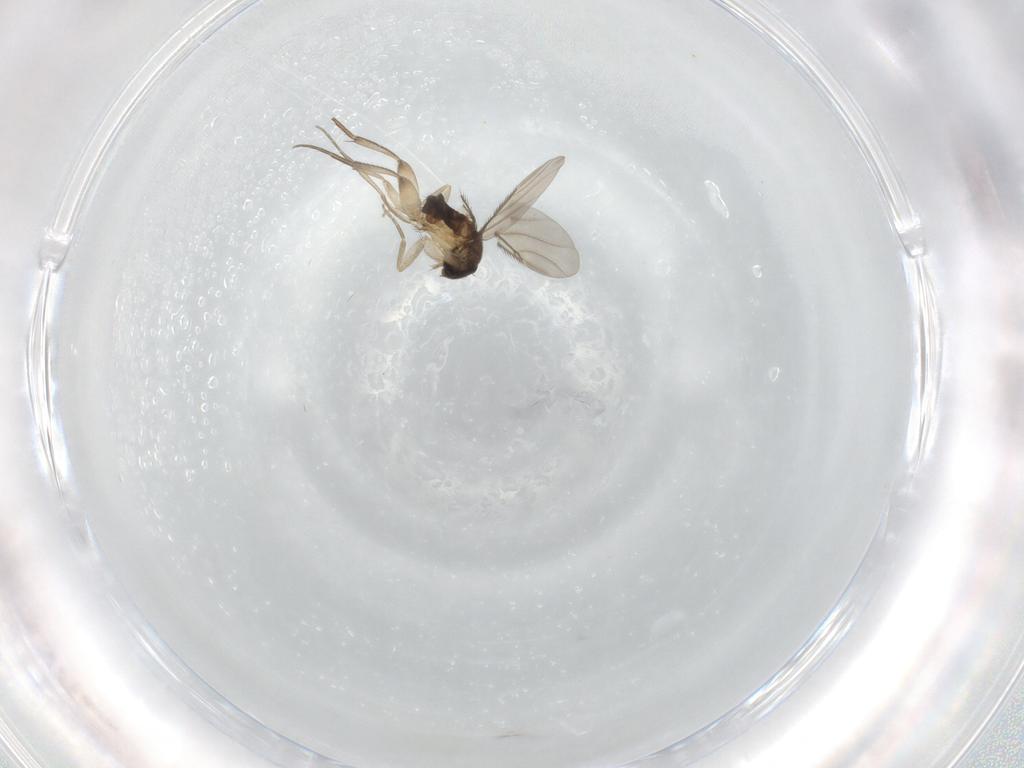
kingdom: Animalia
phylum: Arthropoda
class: Insecta
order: Diptera
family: Phoridae
